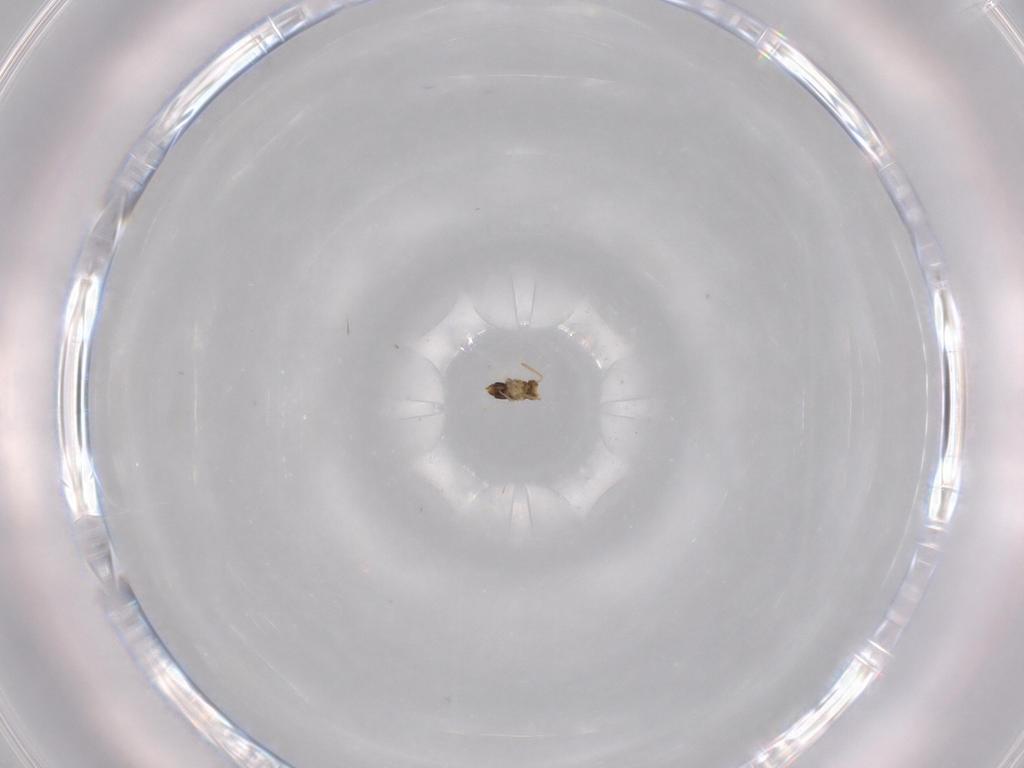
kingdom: Animalia
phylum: Arthropoda
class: Insecta
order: Hymenoptera
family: Aphelinidae
